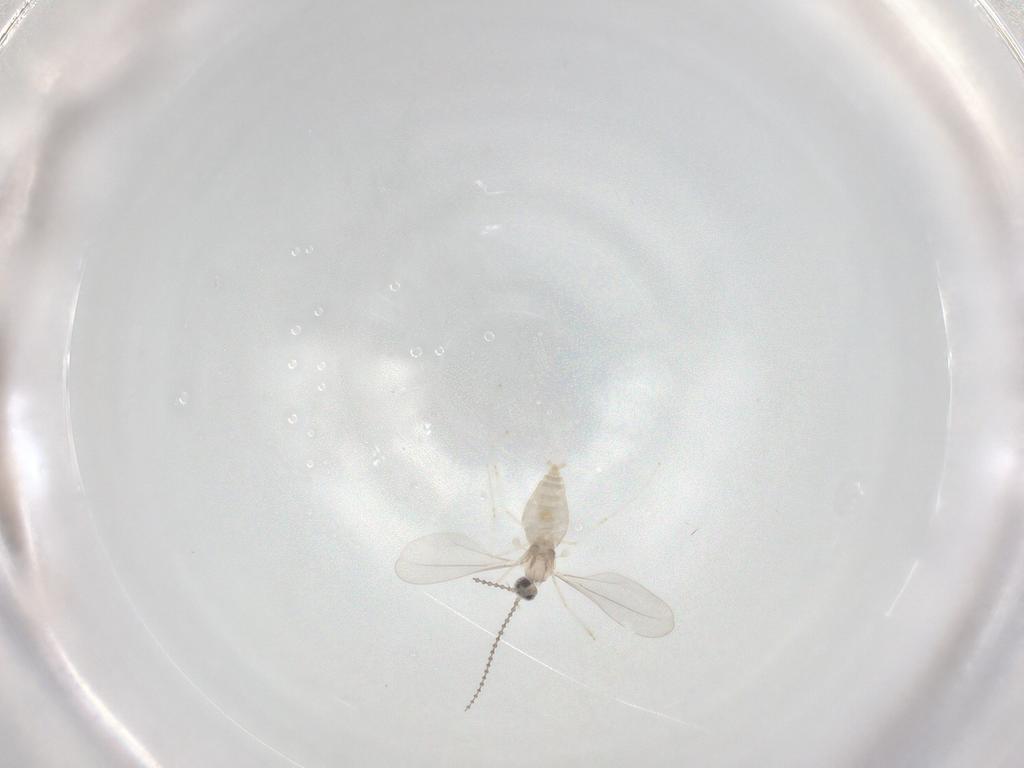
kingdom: Animalia
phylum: Arthropoda
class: Insecta
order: Diptera
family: Cecidomyiidae
